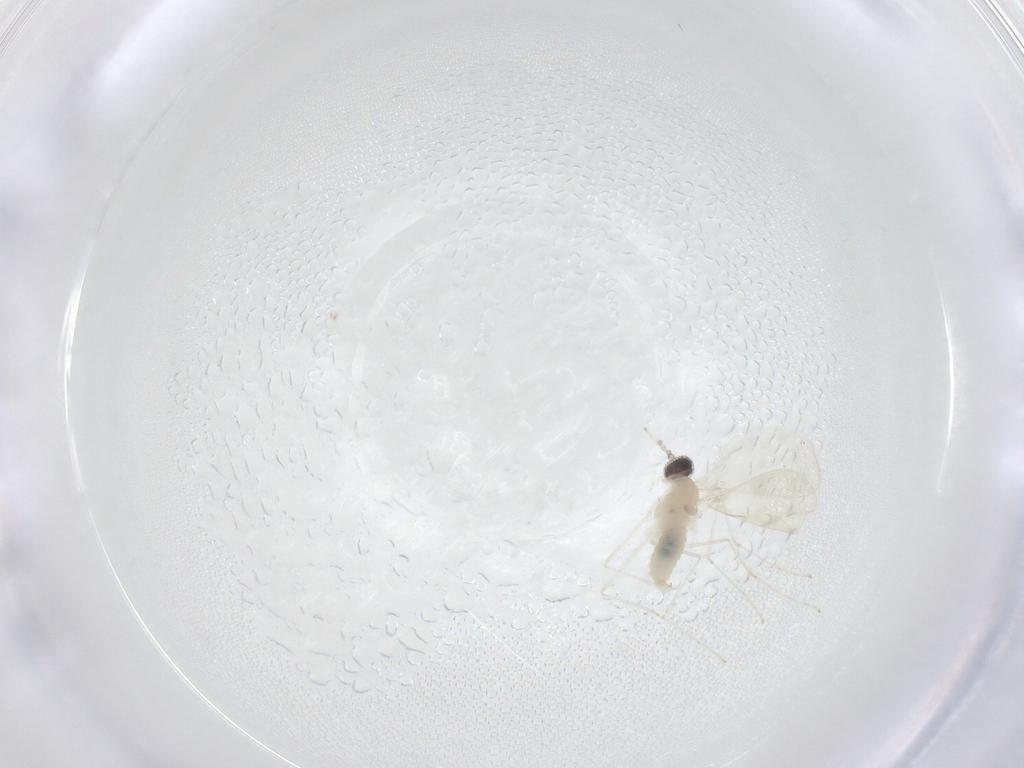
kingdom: Animalia
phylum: Arthropoda
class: Insecta
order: Diptera
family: Cecidomyiidae
